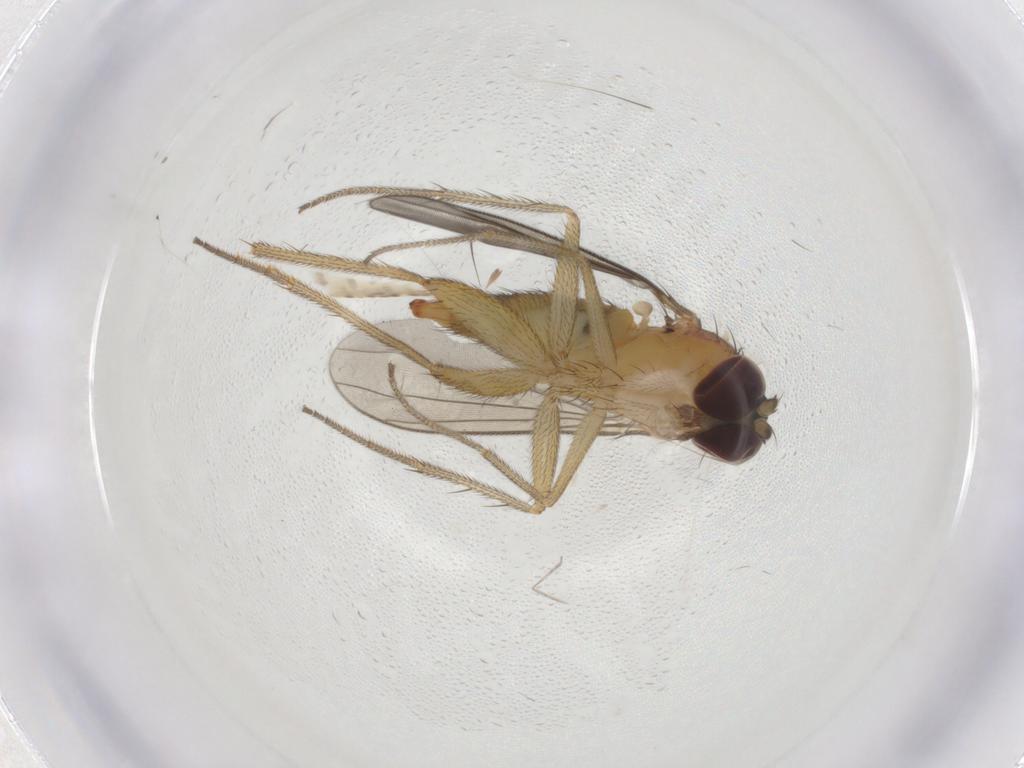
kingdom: Animalia
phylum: Arthropoda
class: Insecta
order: Diptera
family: Dolichopodidae
